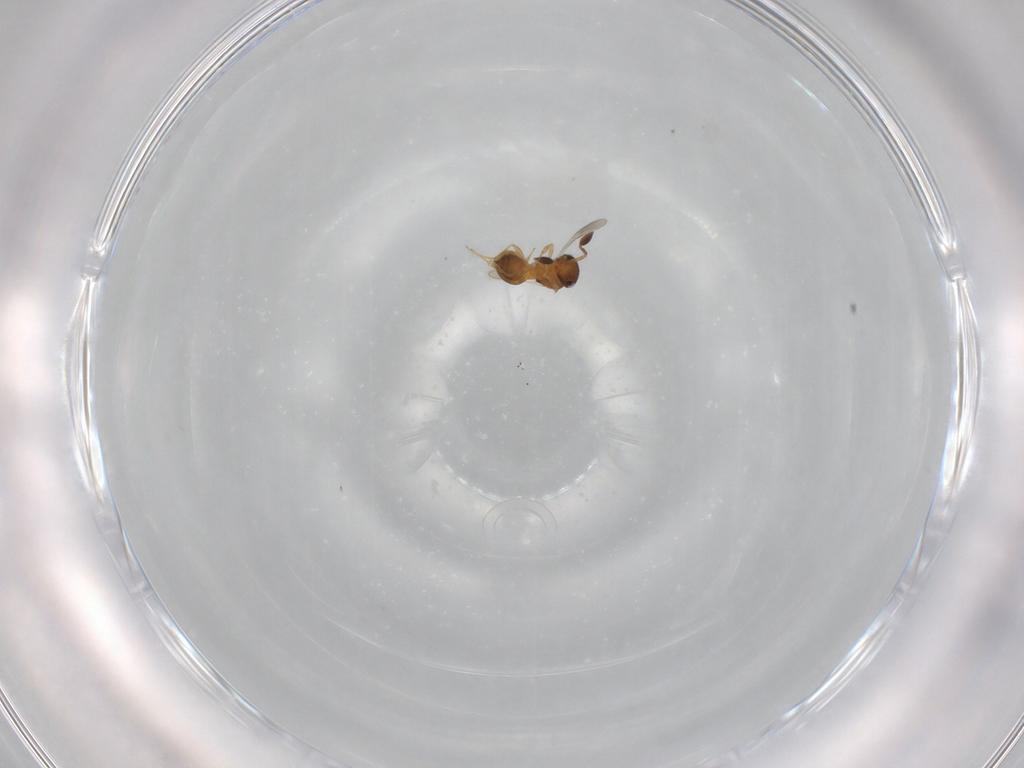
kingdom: Animalia
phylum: Arthropoda
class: Insecta
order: Hymenoptera
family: Scelionidae
